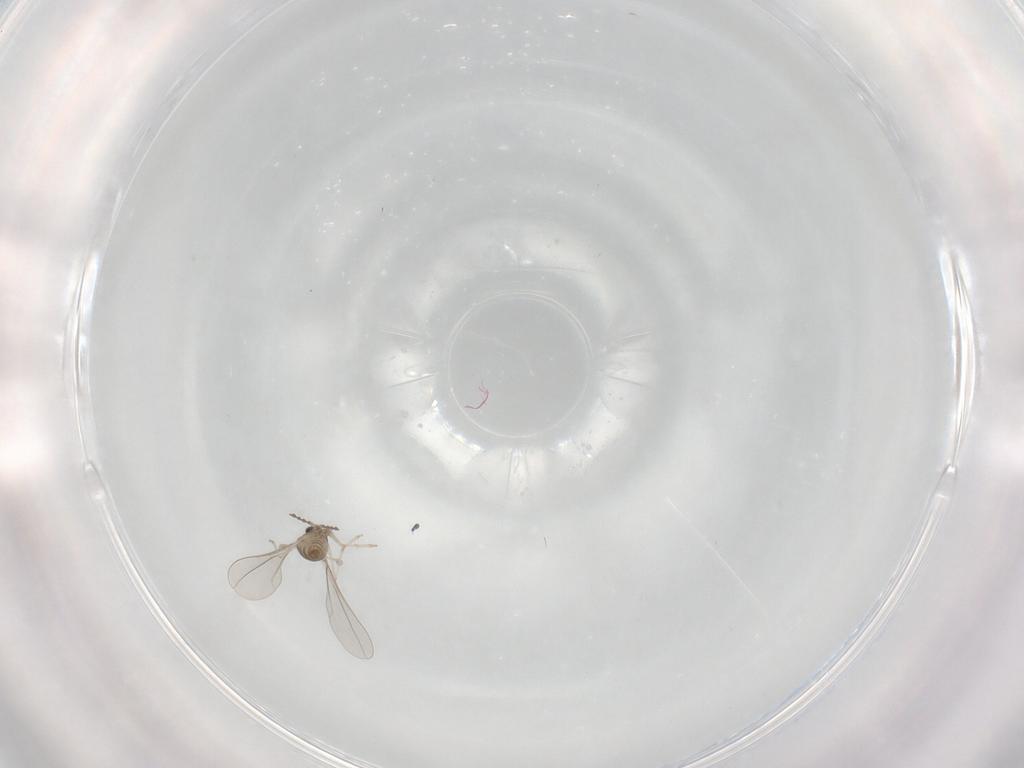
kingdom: Animalia
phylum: Arthropoda
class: Insecta
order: Diptera
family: Cecidomyiidae
